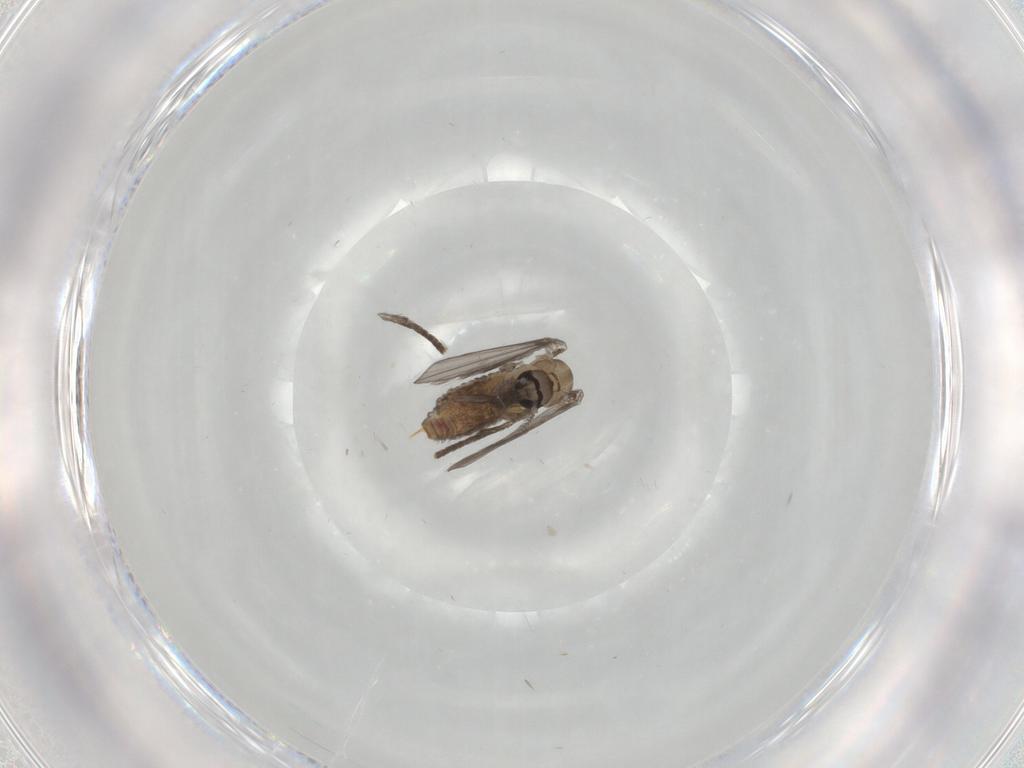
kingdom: Animalia
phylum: Arthropoda
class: Insecta
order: Diptera
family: Psychodidae
